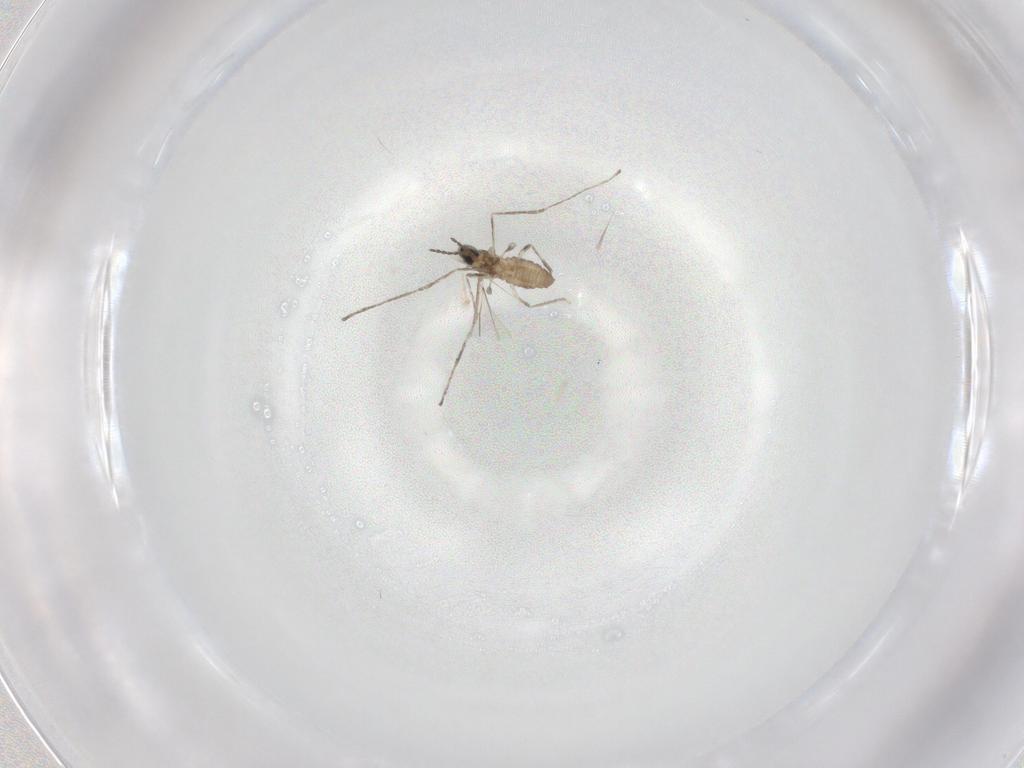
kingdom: Animalia
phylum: Arthropoda
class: Insecta
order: Diptera
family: Cecidomyiidae
